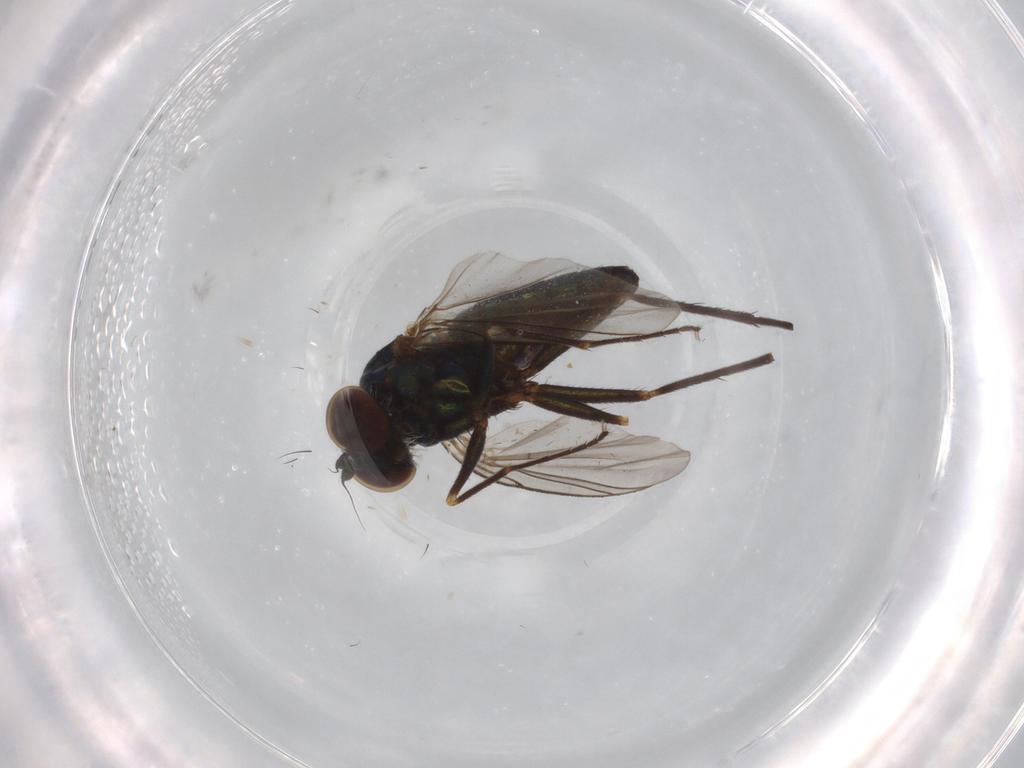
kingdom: Animalia
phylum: Arthropoda
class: Insecta
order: Diptera
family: Dolichopodidae
